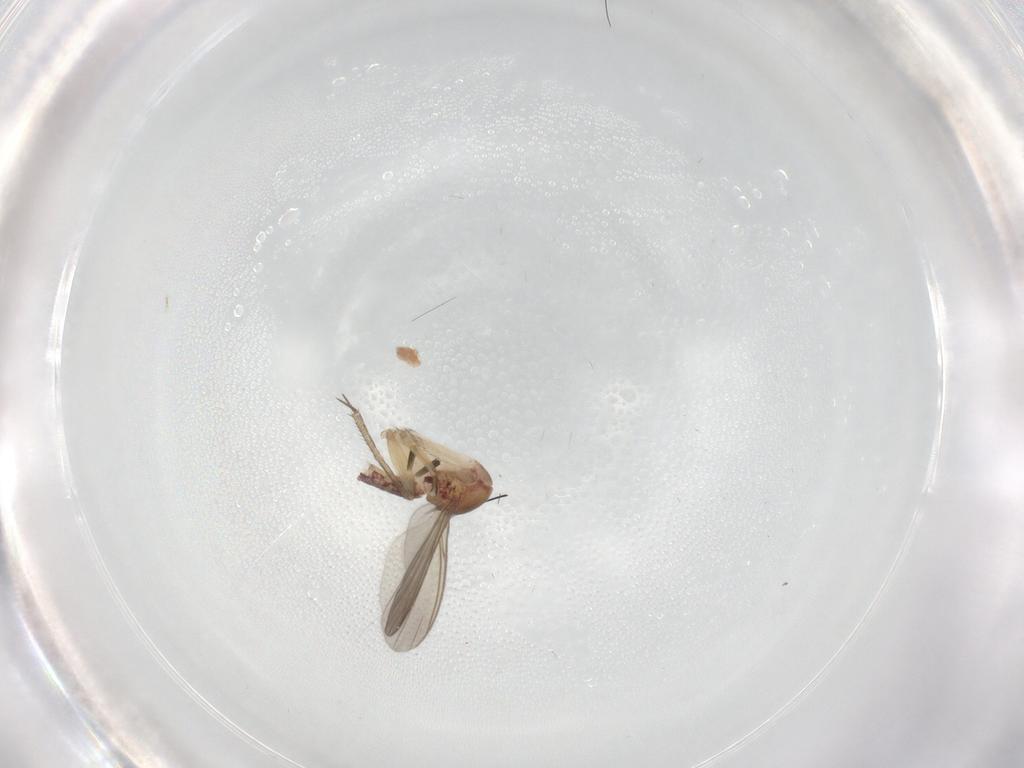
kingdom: Animalia
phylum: Arthropoda
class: Insecta
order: Diptera
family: Mycetophilidae
